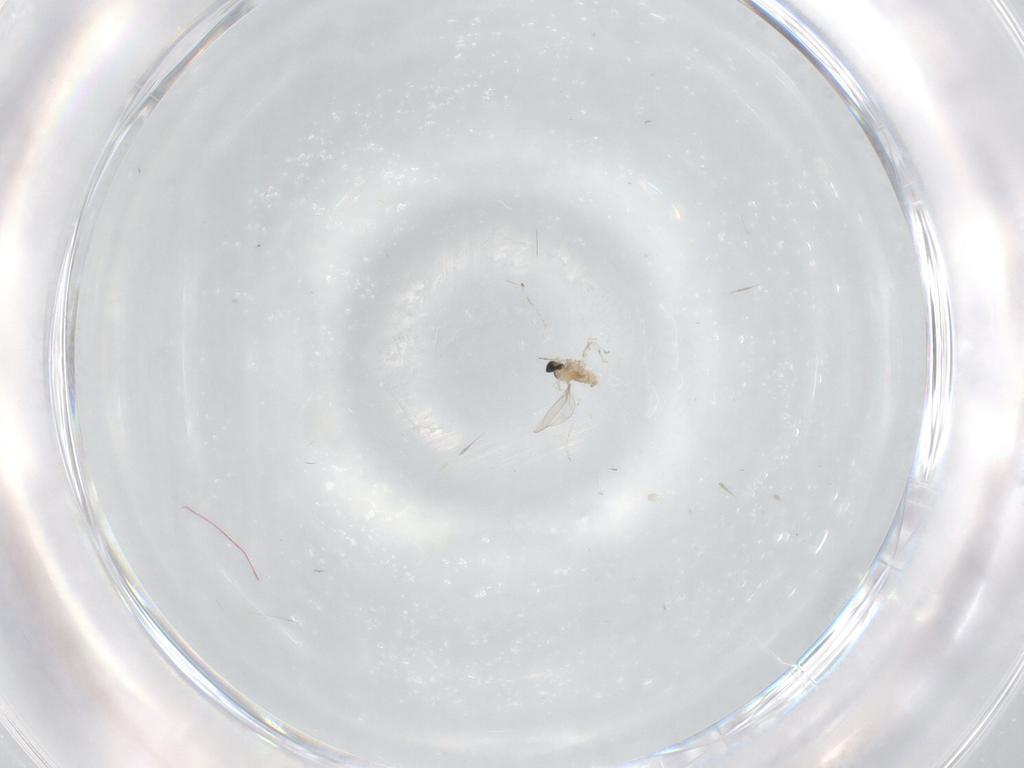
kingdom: Animalia
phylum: Arthropoda
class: Insecta
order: Diptera
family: Cecidomyiidae
